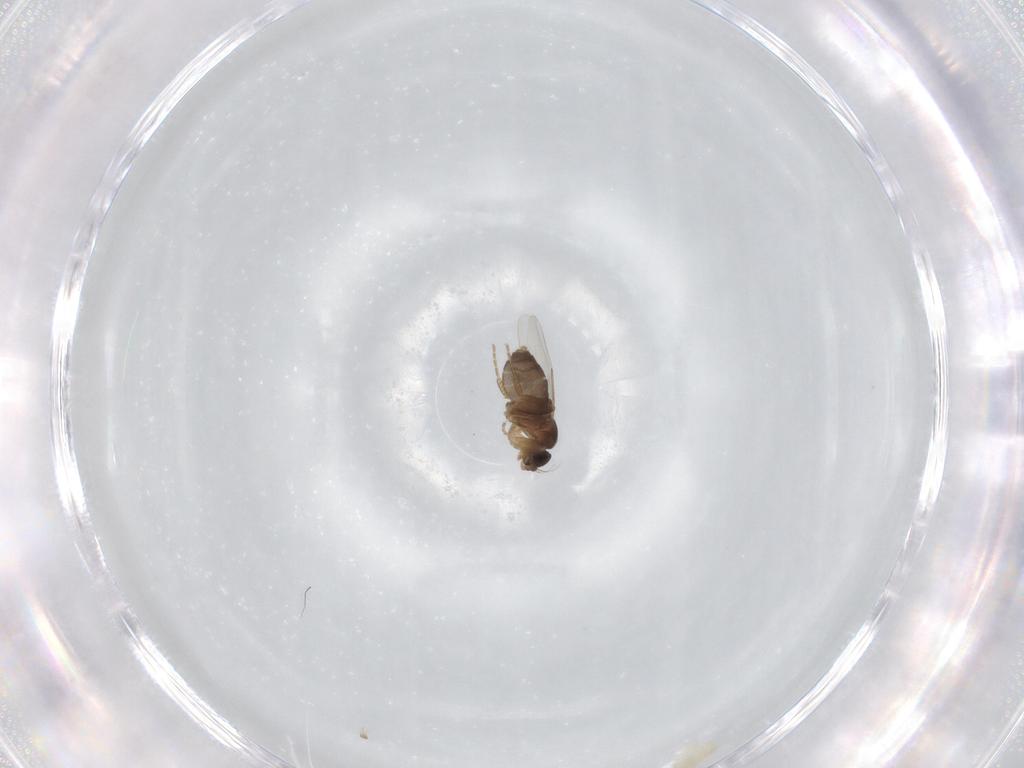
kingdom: Animalia
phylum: Arthropoda
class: Insecta
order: Diptera
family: Phoridae
